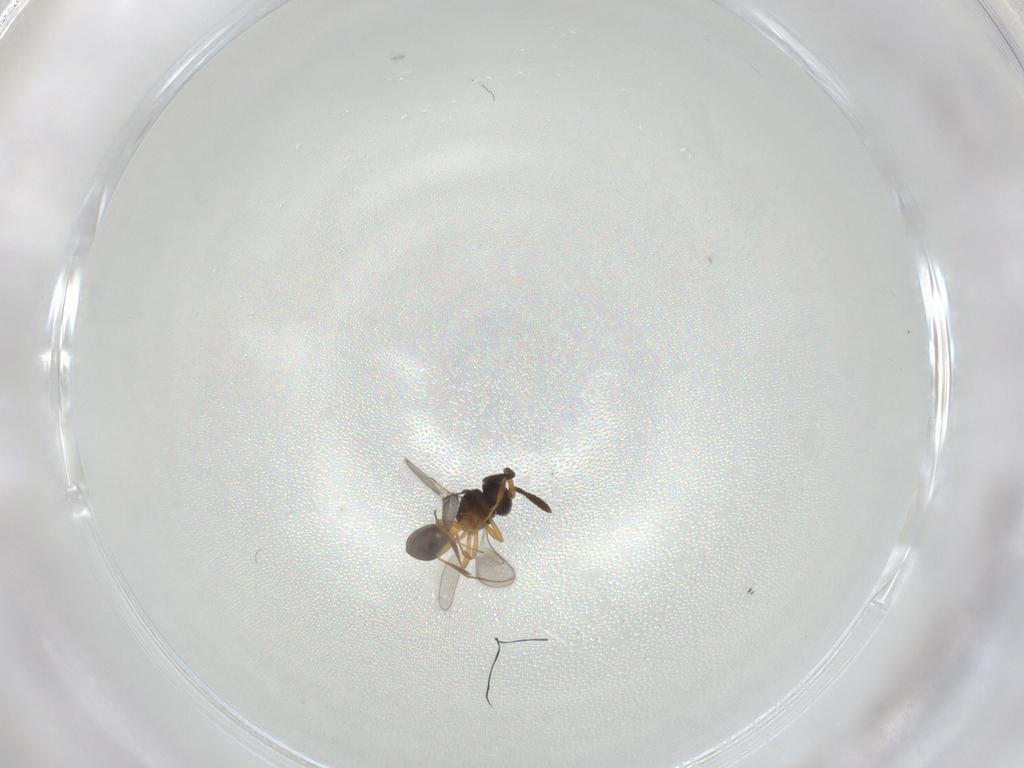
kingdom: Animalia
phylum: Arthropoda
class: Insecta
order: Hymenoptera
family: Scelionidae
